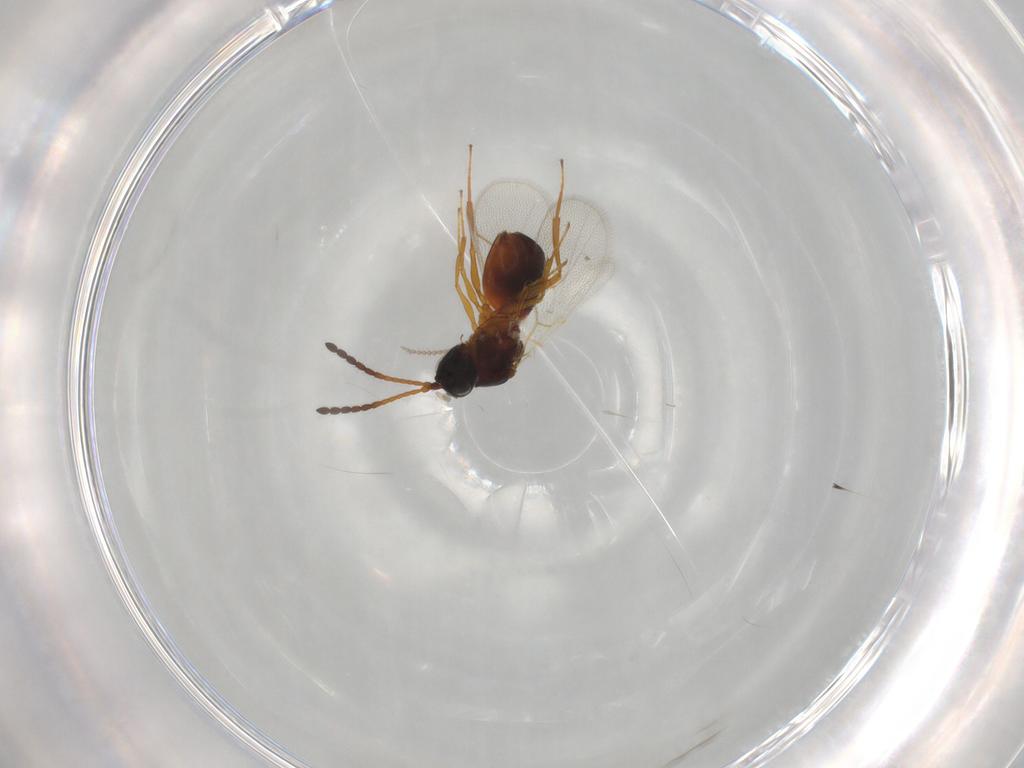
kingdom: Animalia
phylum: Arthropoda
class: Insecta
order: Hymenoptera
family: Figitidae
